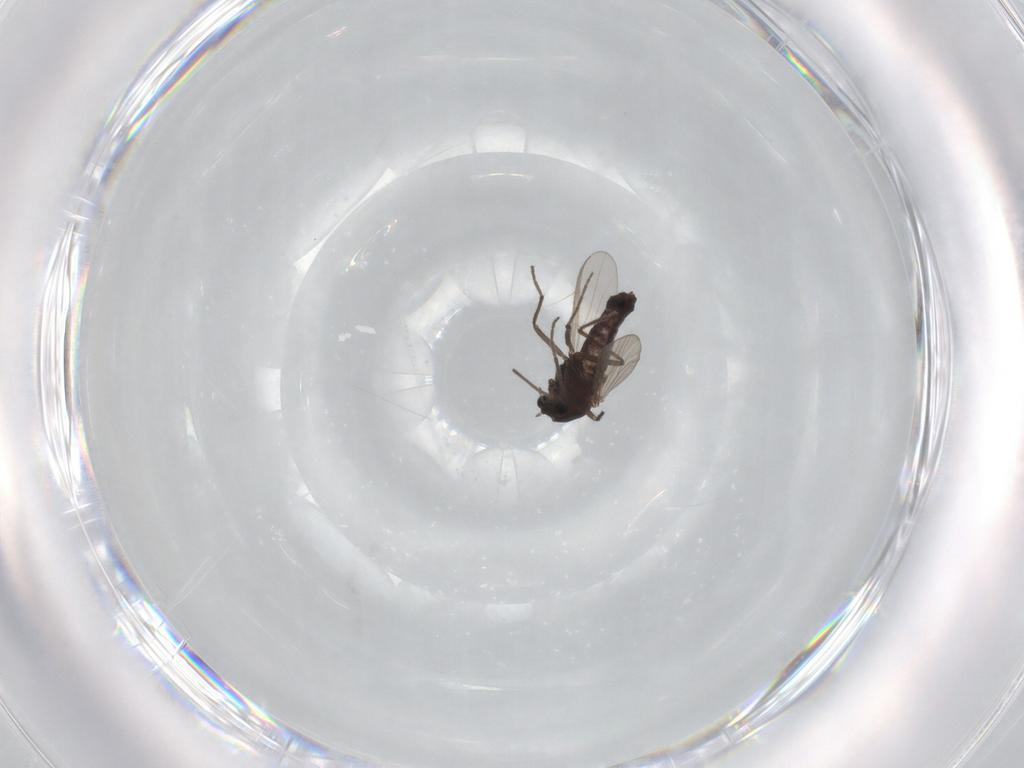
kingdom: Animalia
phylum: Arthropoda
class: Insecta
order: Diptera
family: Chironomidae
